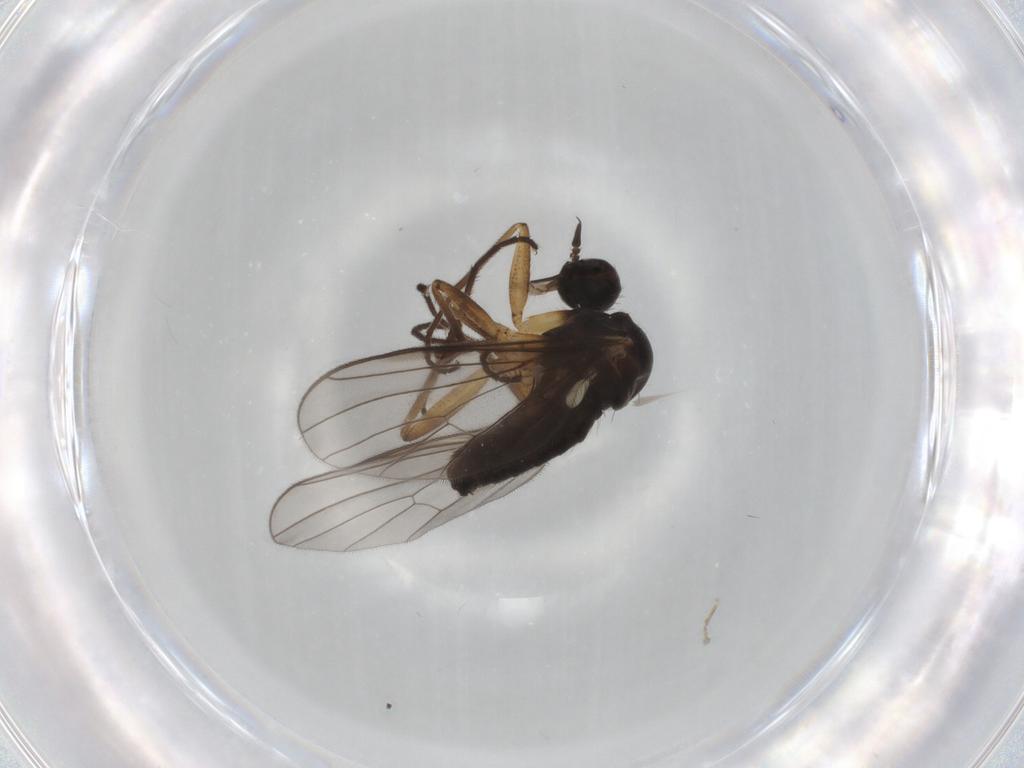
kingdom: Animalia
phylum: Arthropoda
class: Insecta
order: Diptera
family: Empididae
